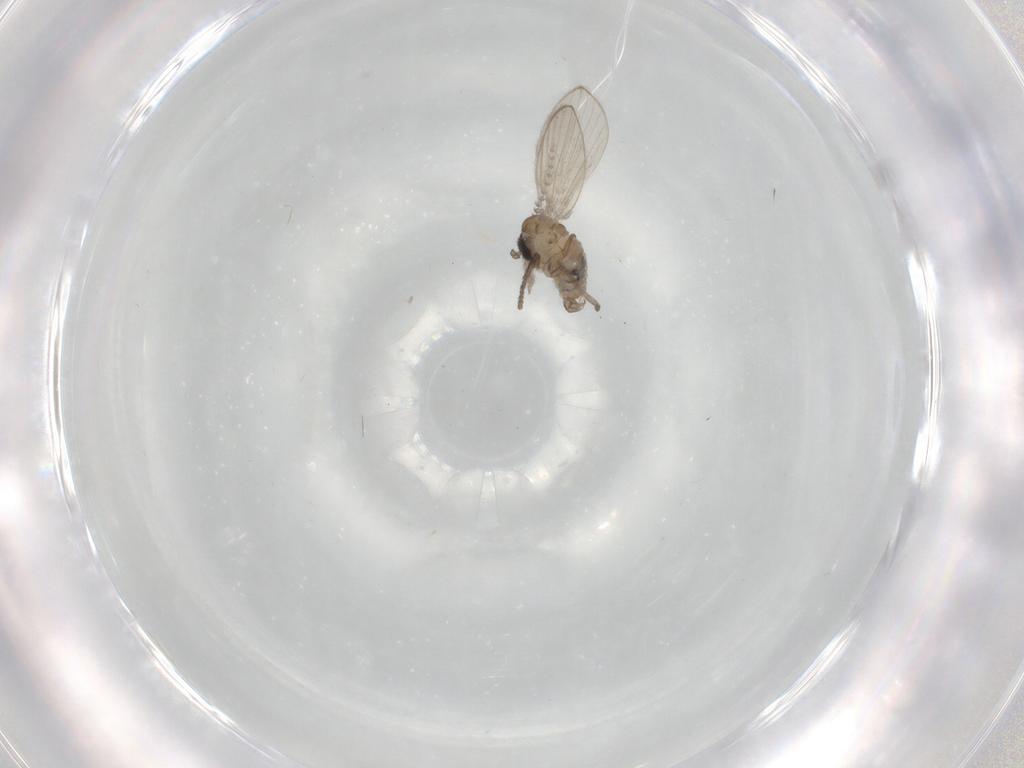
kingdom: Animalia
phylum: Arthropoda
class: Insecta
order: Diptera
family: Psychodidae
